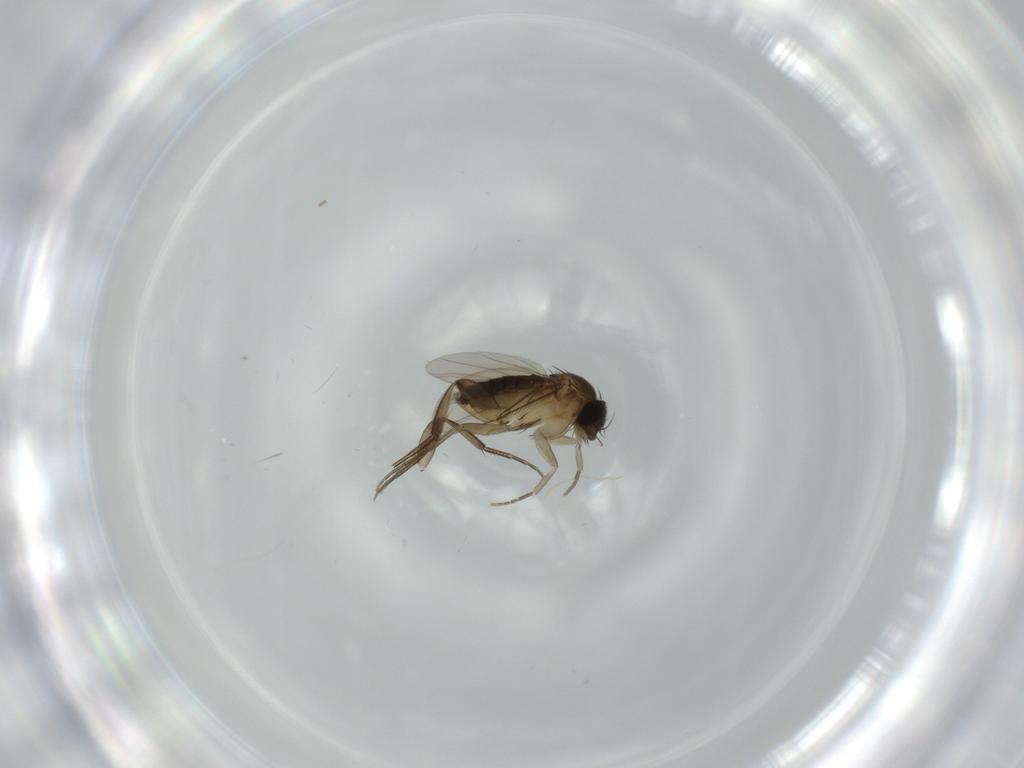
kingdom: Animalia
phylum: Arthropoda
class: Insecta
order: Diptera
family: Phoridae
